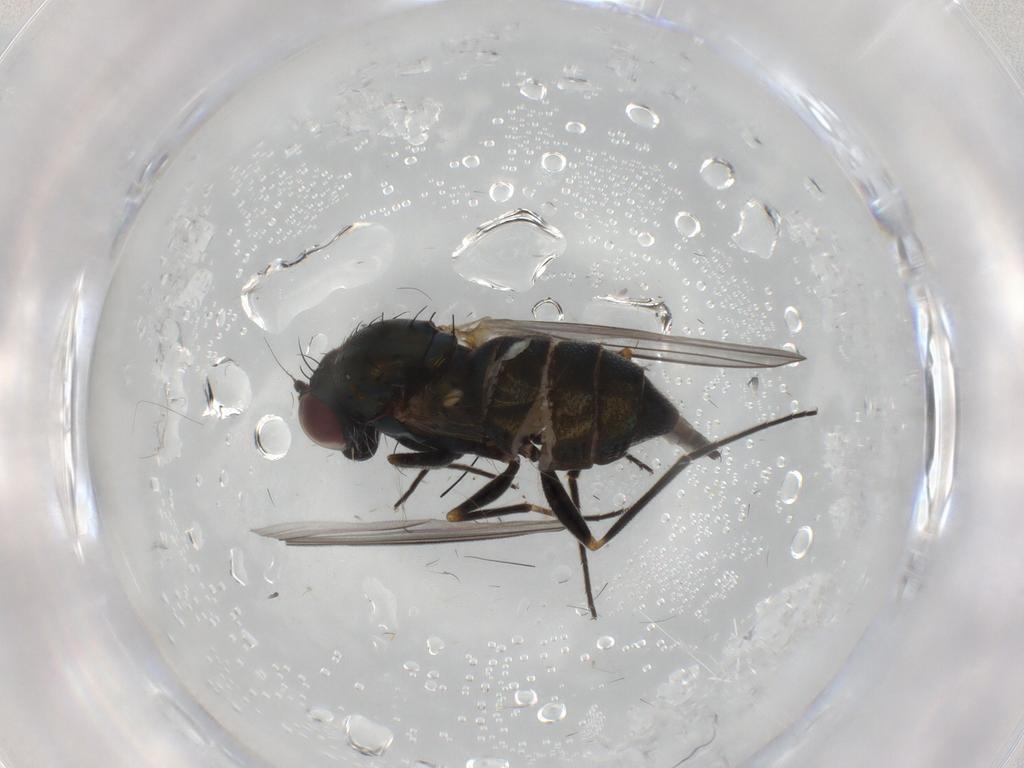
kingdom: Animalia
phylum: Arthropoda
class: Insecta
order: Diptera
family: Dolichopodidae
